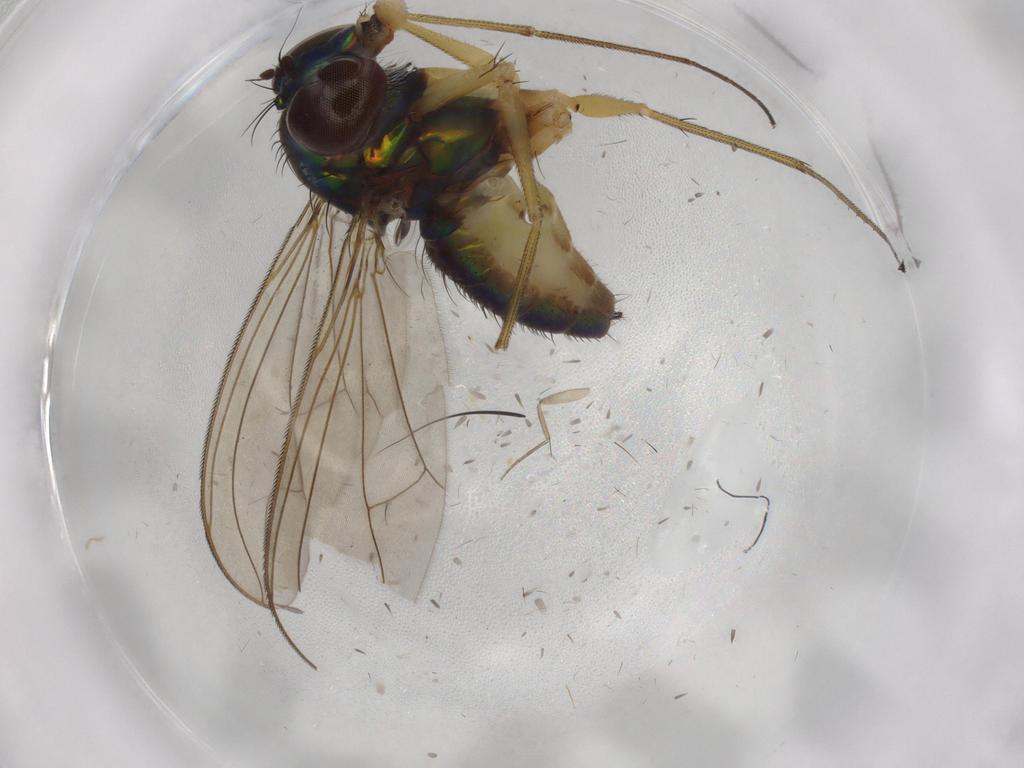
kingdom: Animalia
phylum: Arthropoda
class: Insecta
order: Diptera
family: Dolichopodidae
